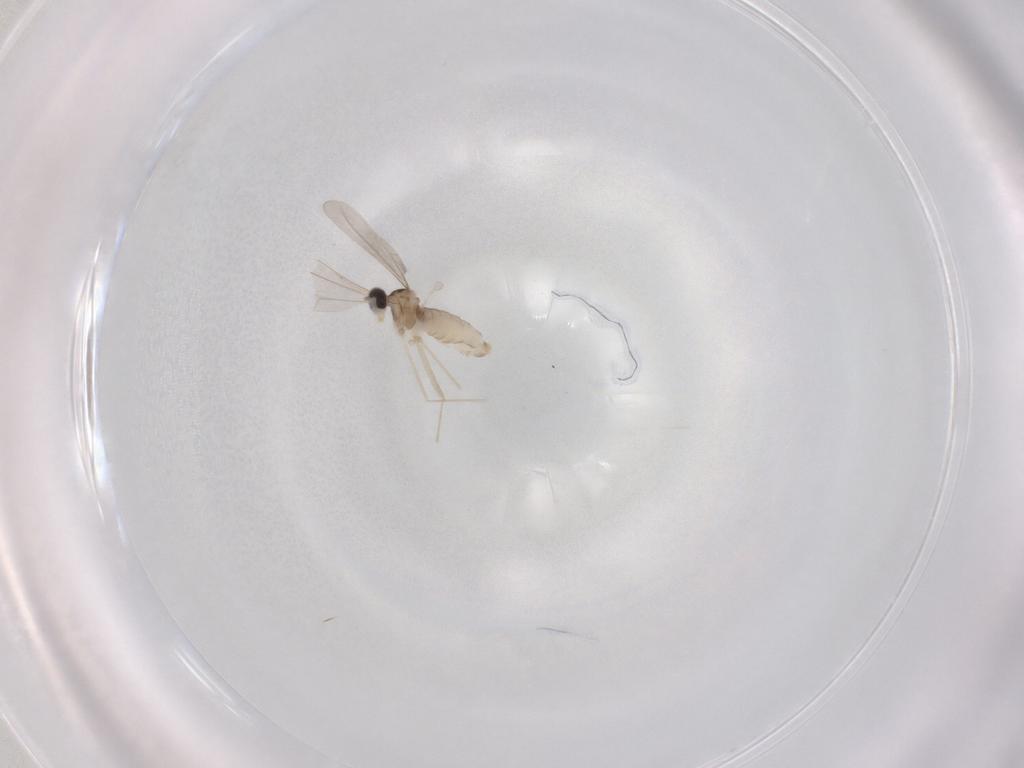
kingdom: Animalia
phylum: Arthropoda
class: Insecta
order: Diptera
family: Cecidomyiidae
